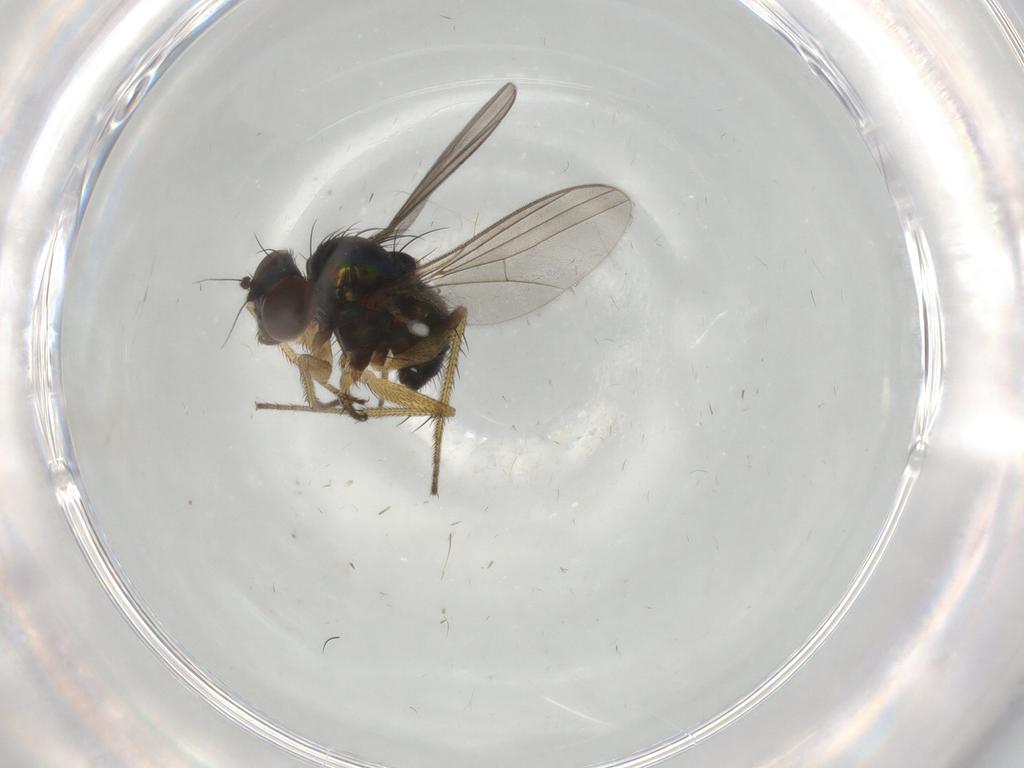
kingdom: Animalia
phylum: Arthropoda
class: Insecta
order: Diptera
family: Dolichopodidae
